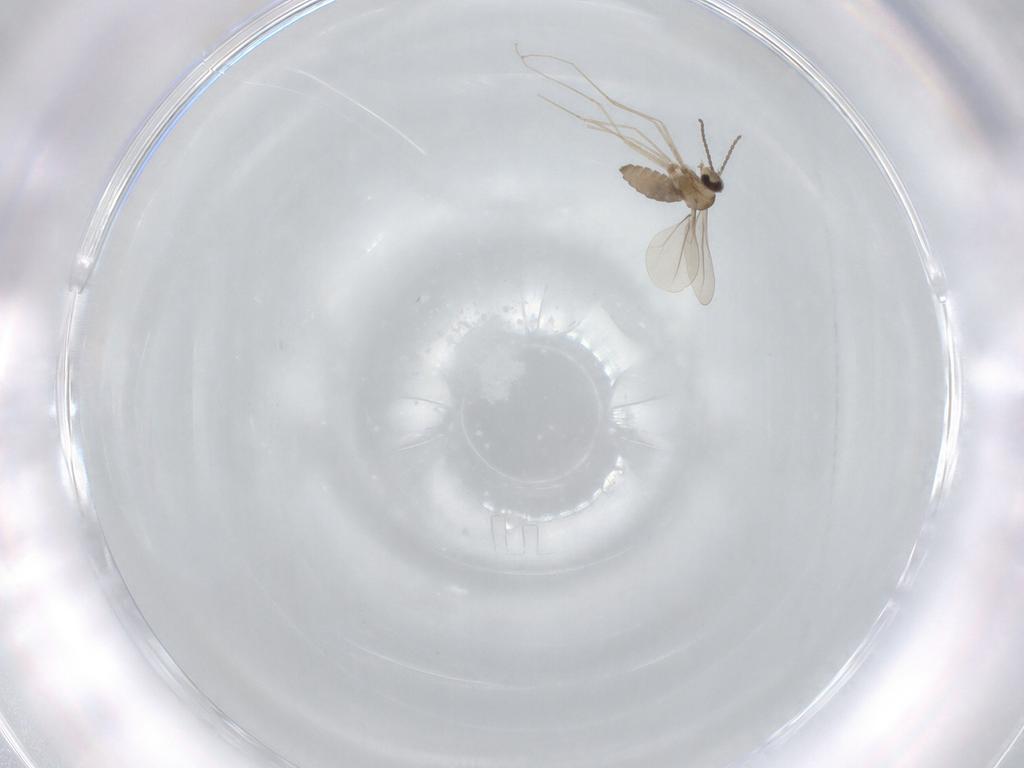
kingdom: Animalia
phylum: Arthropoda
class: Insecta
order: Diptera
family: Cecidomyiidae
